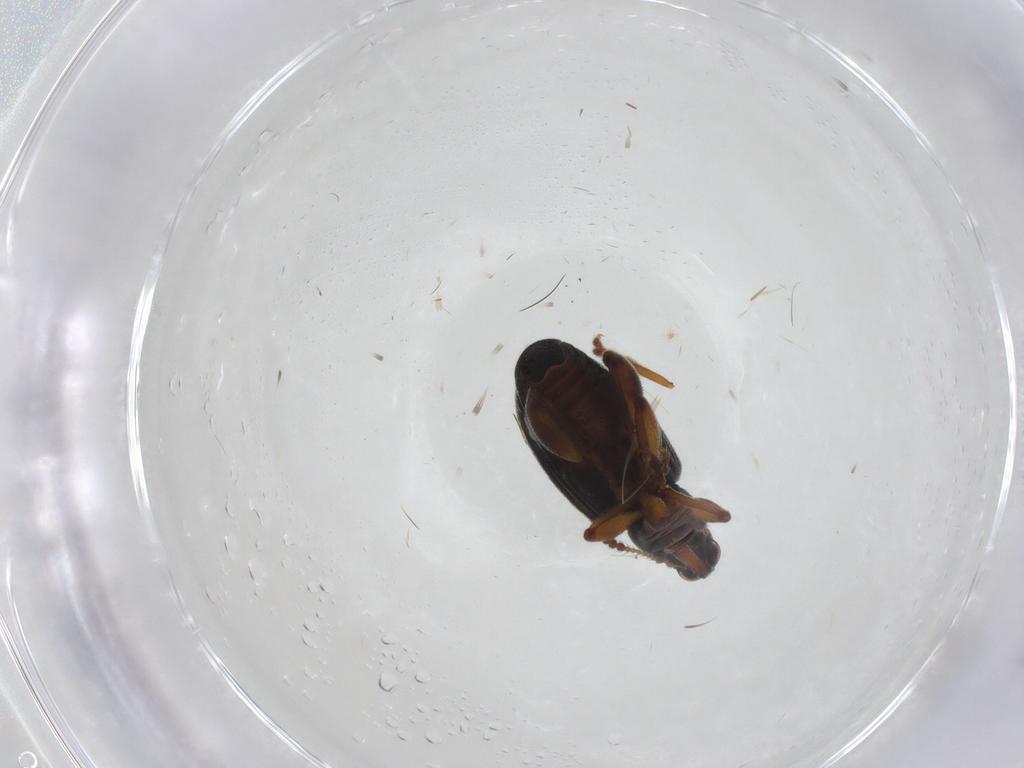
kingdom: Animalia
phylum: Arthropoda
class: Insecta
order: Coleoptera
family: Curculionidae
